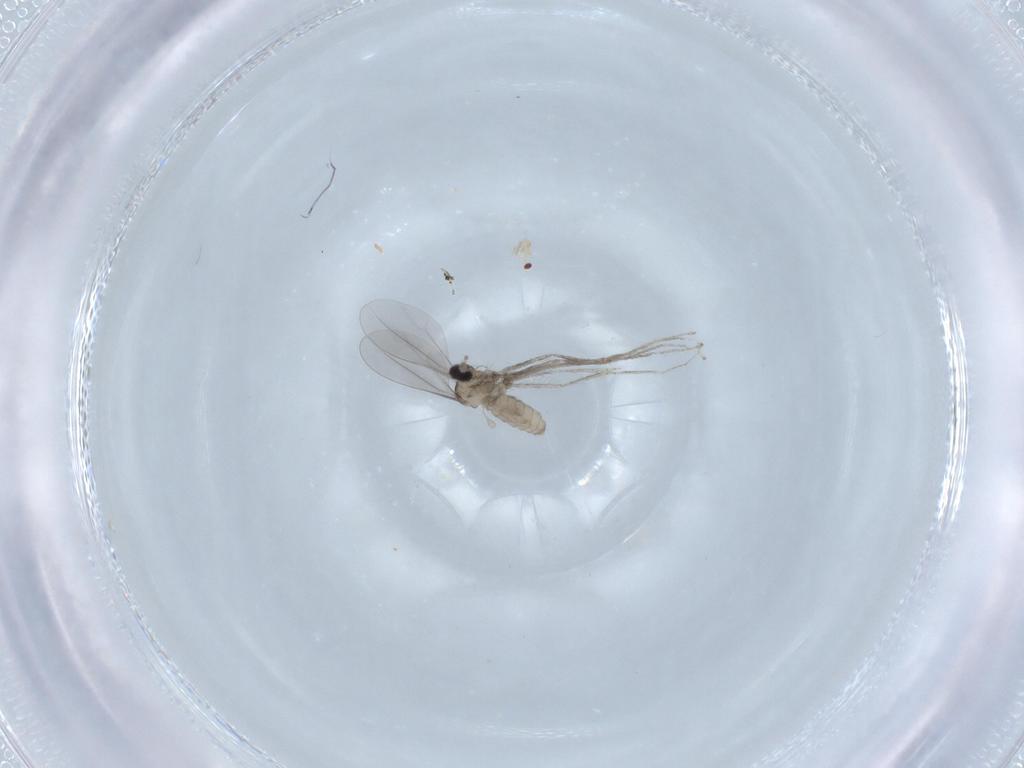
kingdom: Animalia
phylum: Arthropoda
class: Insecta
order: Diptera
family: Cecidomyiidae
